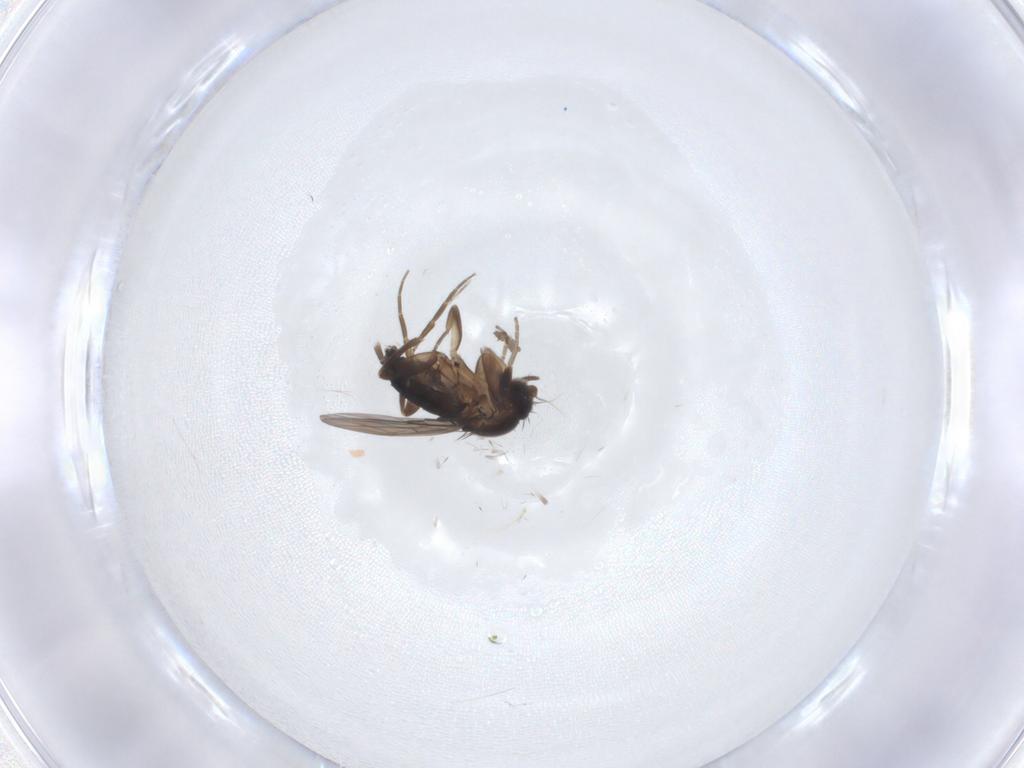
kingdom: Animalia
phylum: Arthropoda
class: Insecta
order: Diptera
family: Phoridae
